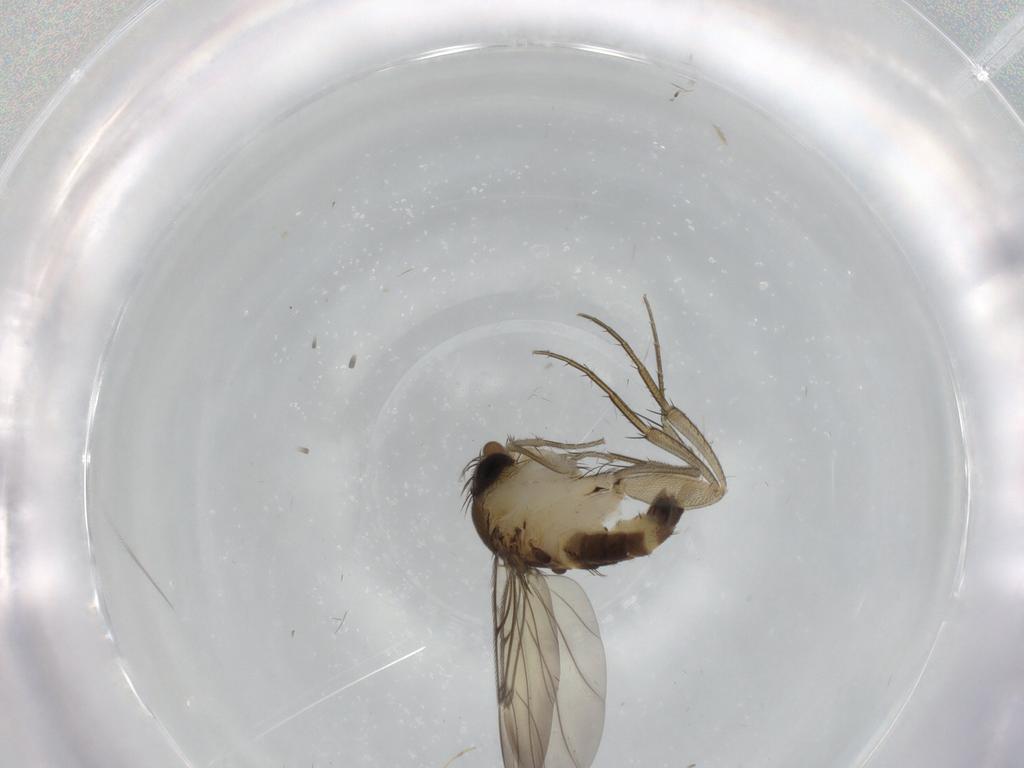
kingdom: Animalia
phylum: Arthropoda
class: Insecta
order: Diptera
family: Phoridae
